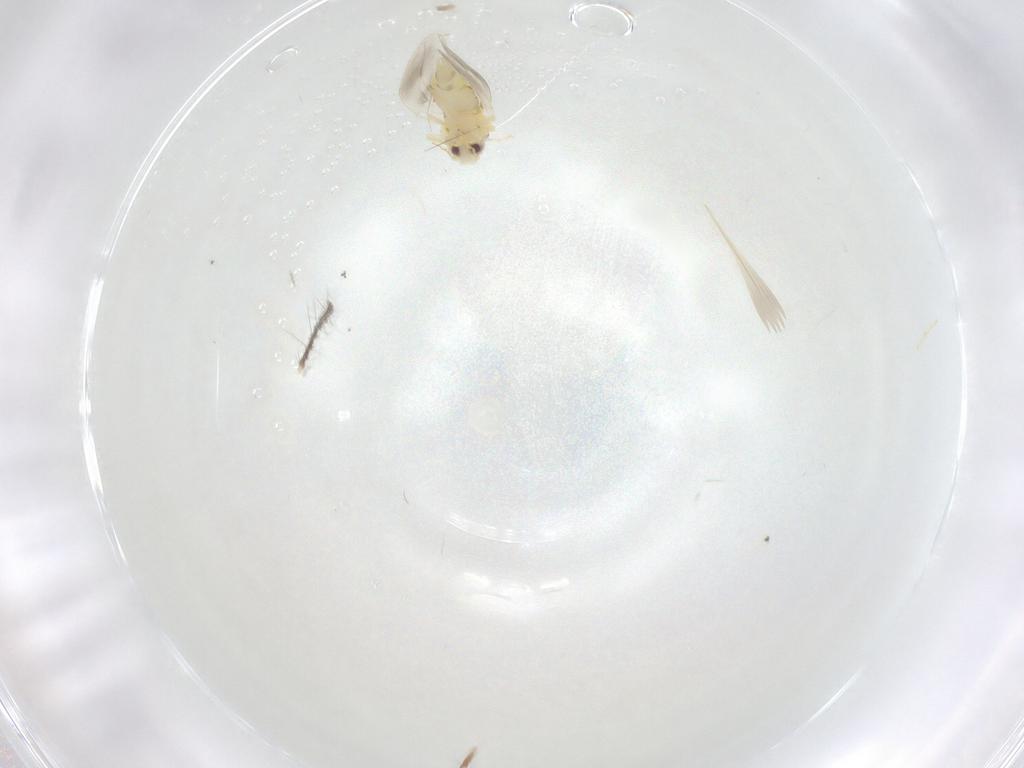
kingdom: Animalia
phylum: Arthropoda
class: Insecta
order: Hemiptera
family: Aleyrodidae
